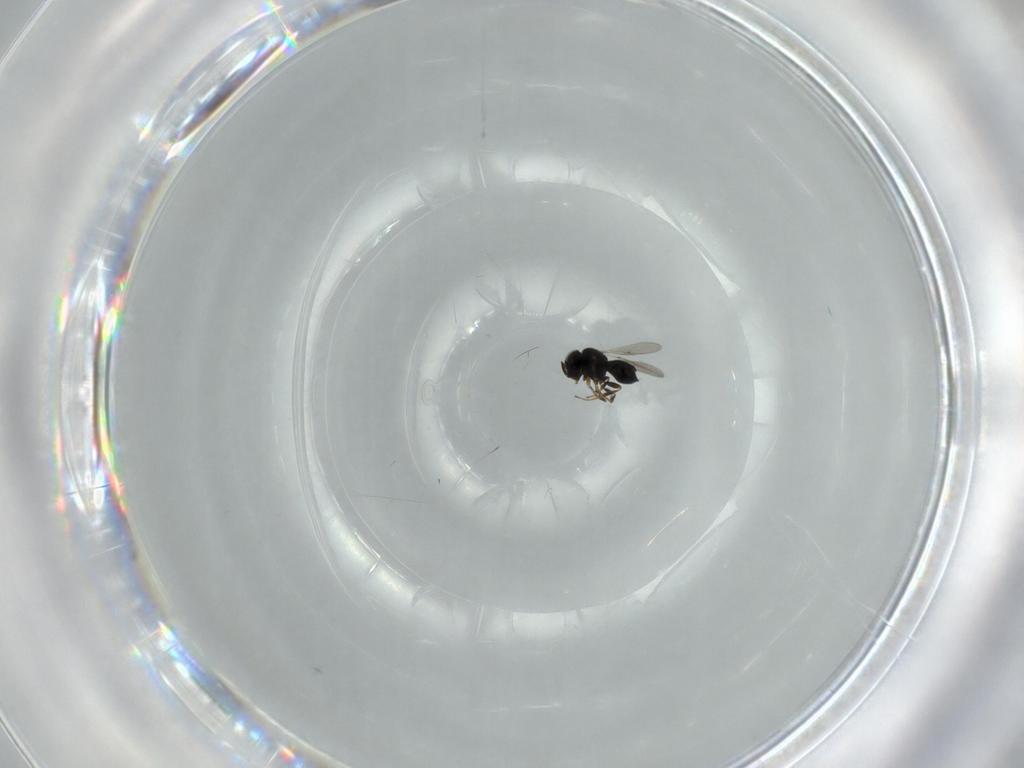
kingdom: Animalia
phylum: Arthropoda
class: Insecta
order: Hymenoptera
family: Scelionidae
